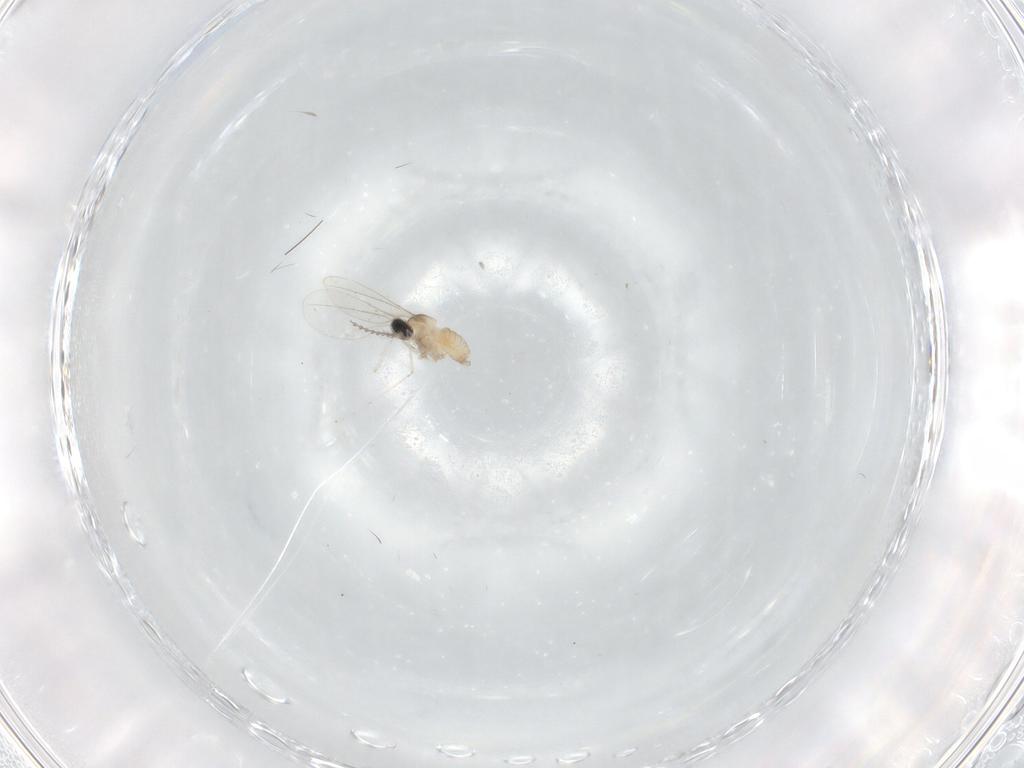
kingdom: Animalia
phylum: Arthropoda
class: Insecta
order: Diptera
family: Cecidomyiidae
